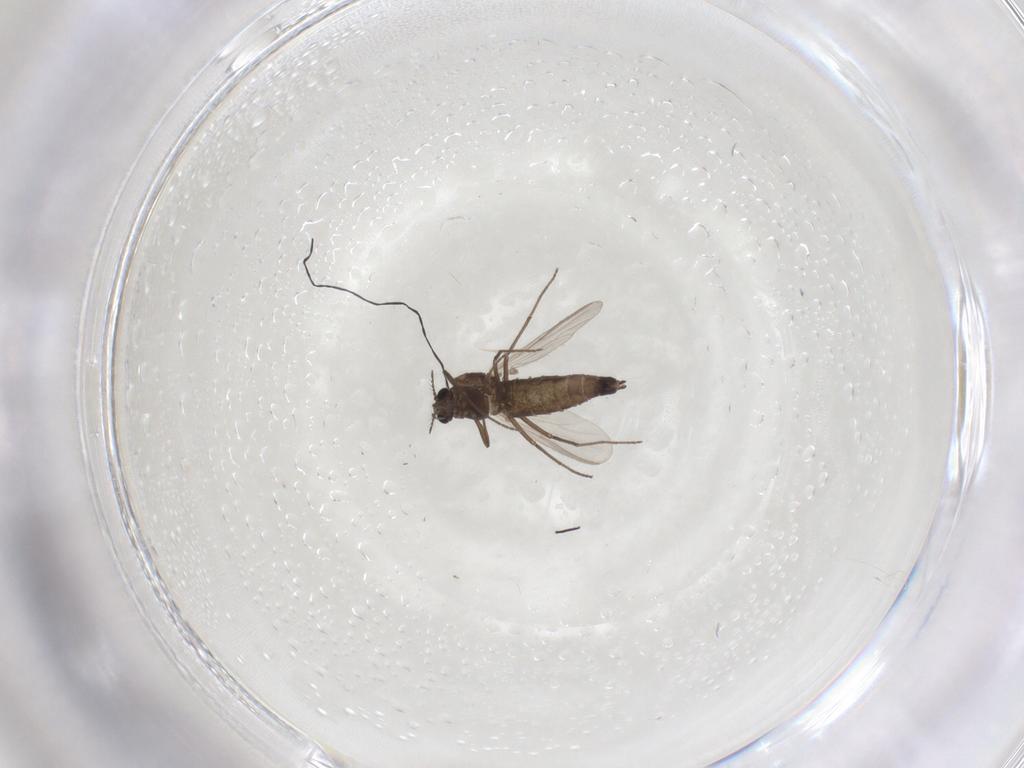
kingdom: Animalia
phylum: Arthropoda
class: Insecta
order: Diptera
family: Chironomidae
